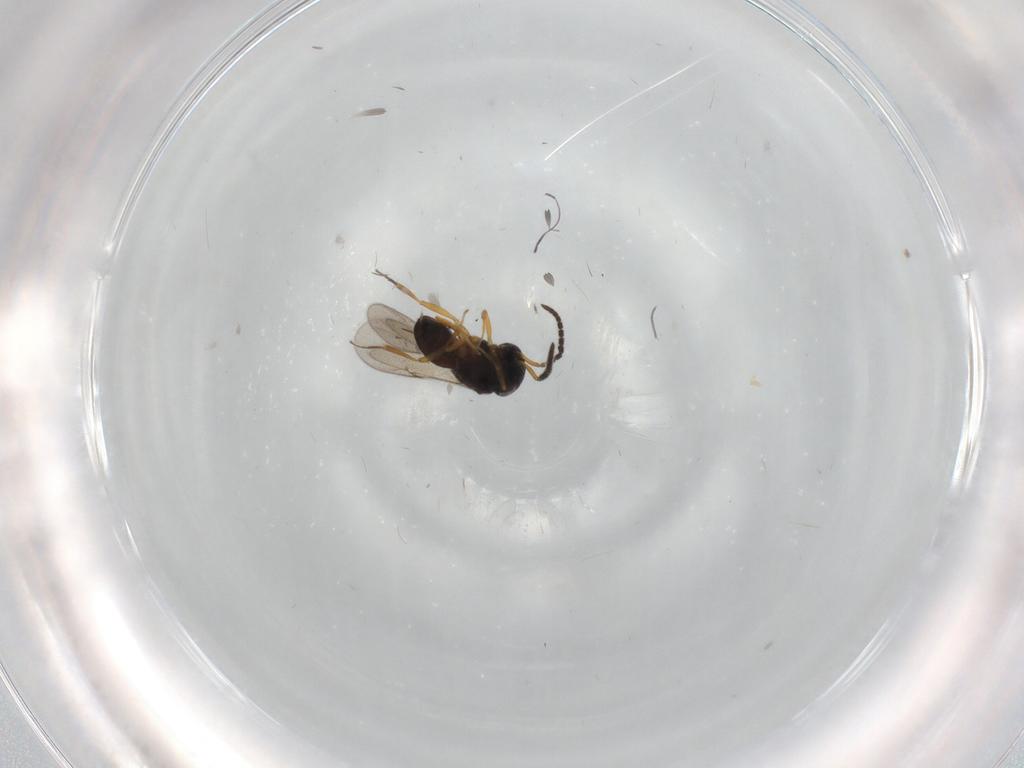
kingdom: Animalia
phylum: Arthropoda
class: Insecta
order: Hymenoptera
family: Scelionidae
